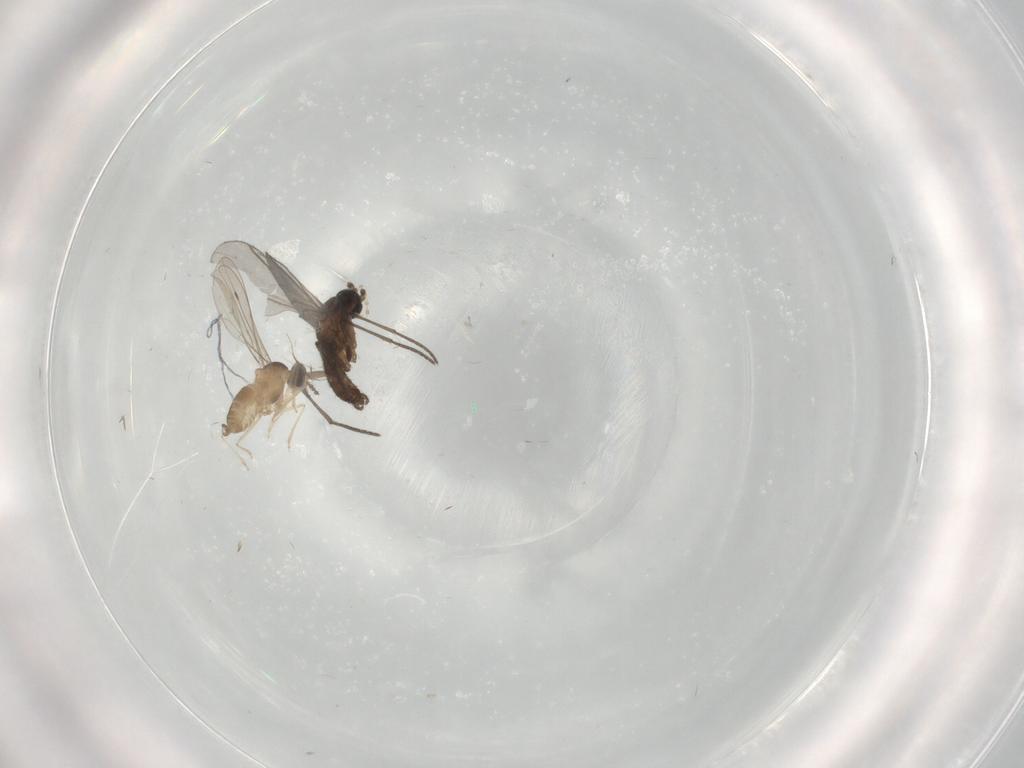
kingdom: Animalia
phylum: Arthropoda
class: Insecta
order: Diptera
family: Cecidomyiidae
